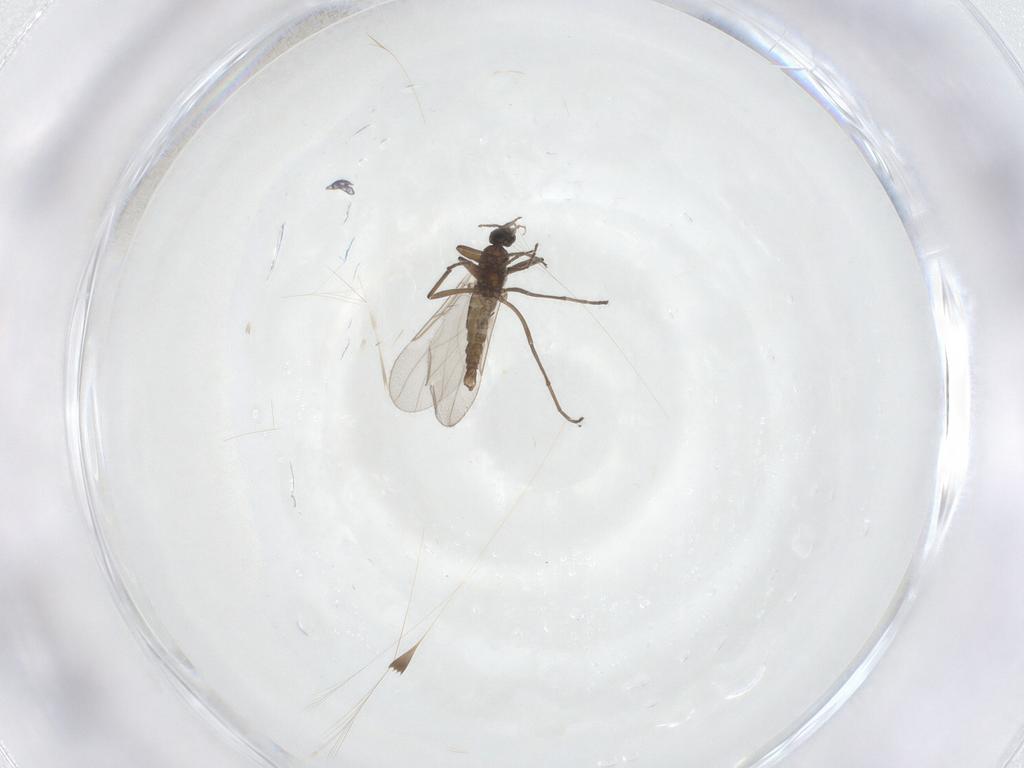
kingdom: Animalia
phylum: Arthropoda
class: Insecta
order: Diptera
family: Cecidomyiidae
